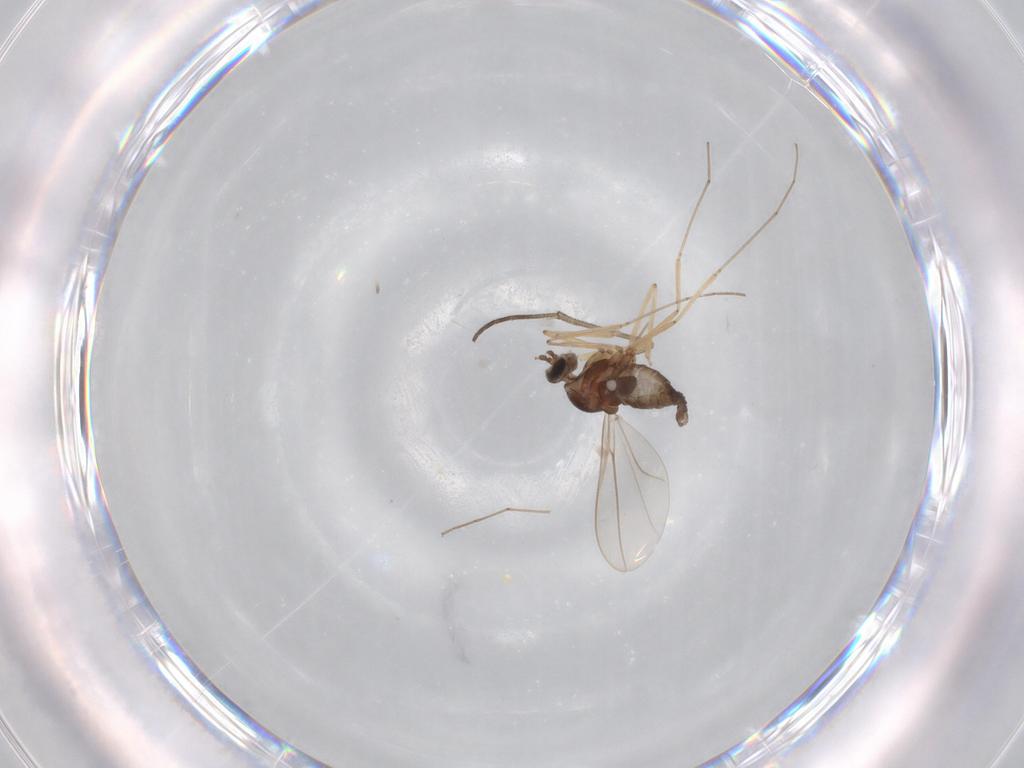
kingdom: Animalia
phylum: Arthropoda
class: Insecta
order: Diptera
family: Cecidomyiidae
